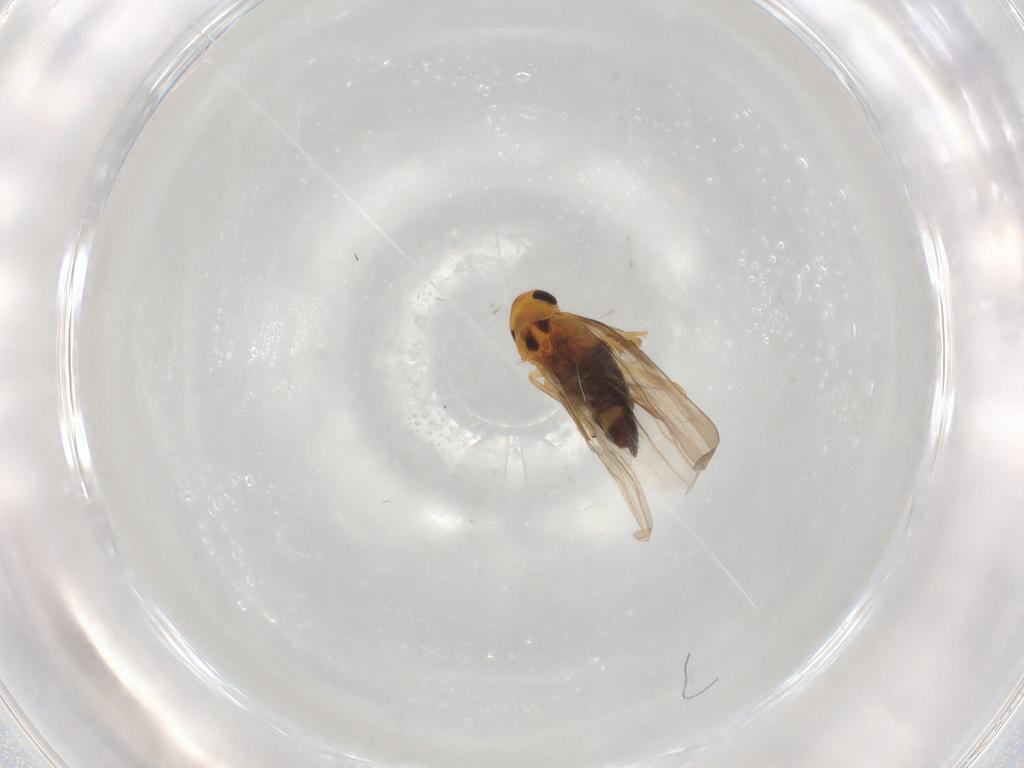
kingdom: Animalia
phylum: Arthropoda
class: Insecta
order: Hemiptera
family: Cicadellidae
